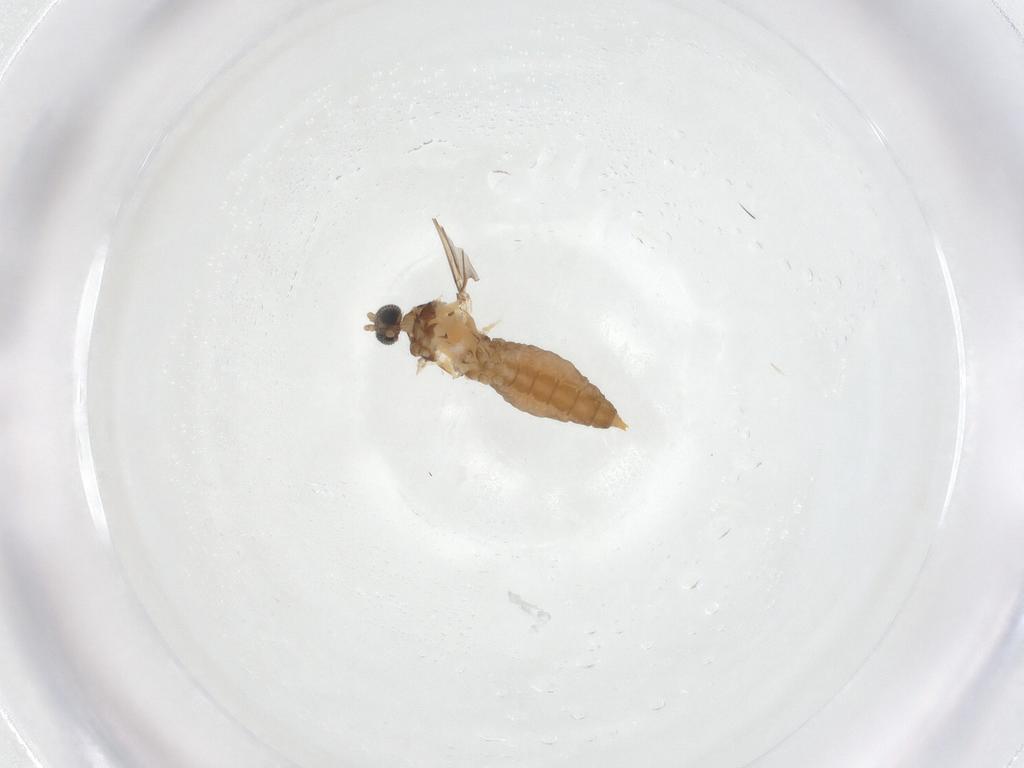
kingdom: Animalia
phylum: Arthropoda
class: Insecta
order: Diptera
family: Cecidomyiidae
